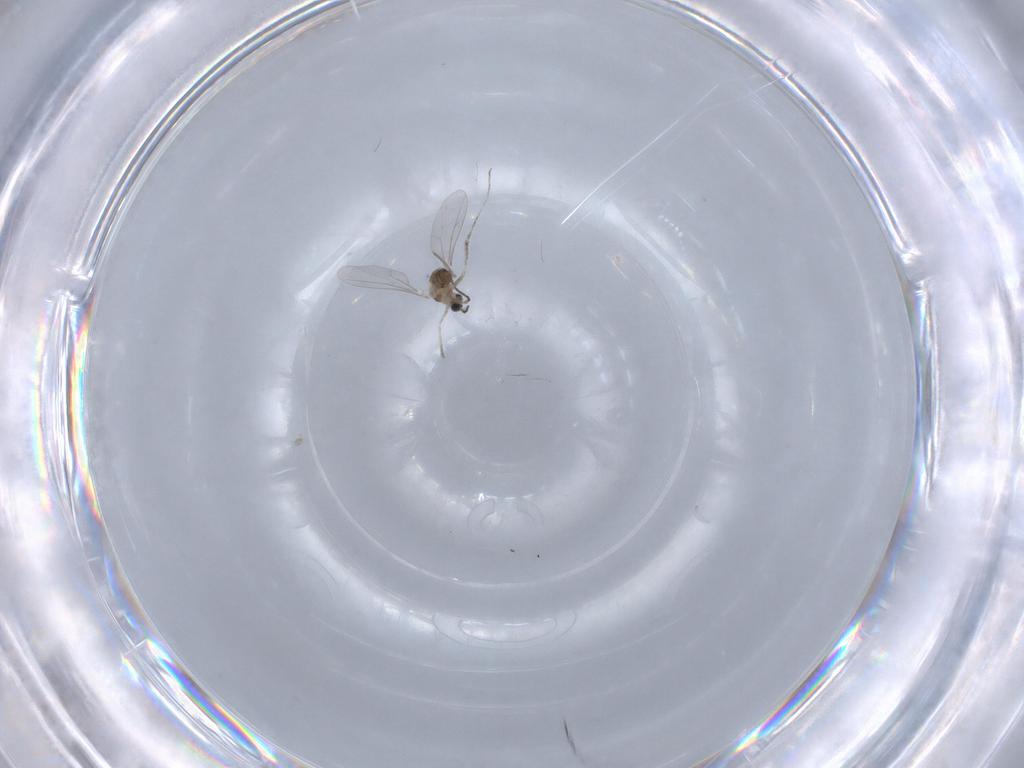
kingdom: Animalia
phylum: Arthropoda
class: Insecta
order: Diptera
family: Cecidomyiidae
